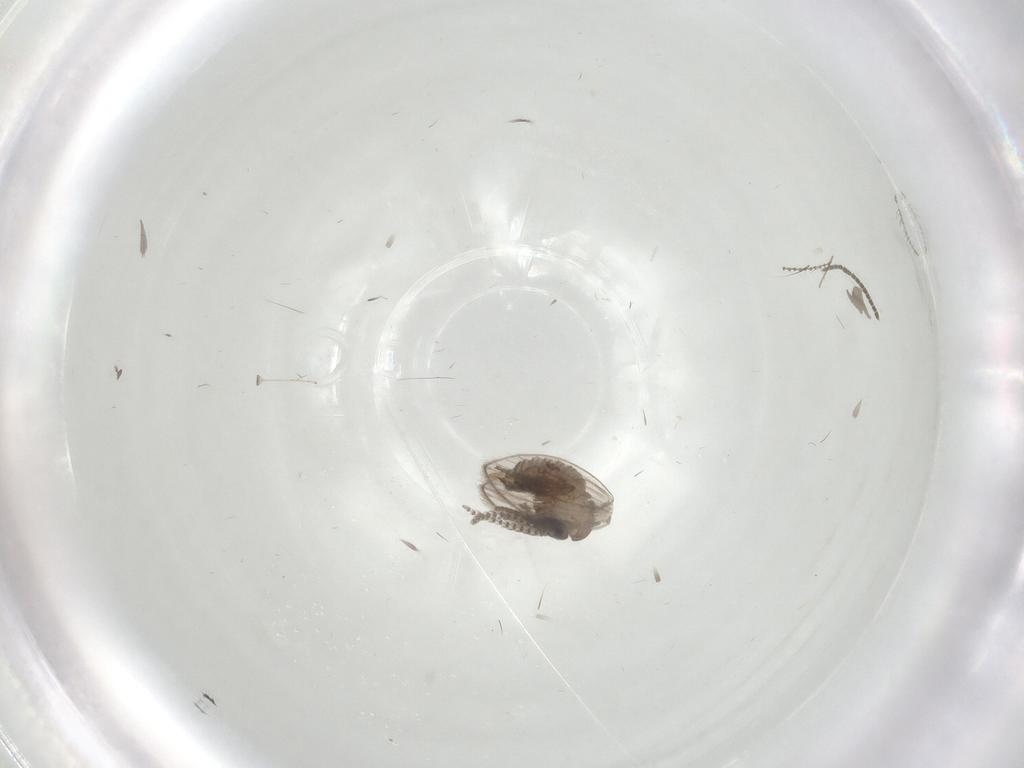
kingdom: Animalia
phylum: Arthropoda
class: Insecta
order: Diptera
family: Sciaridae
